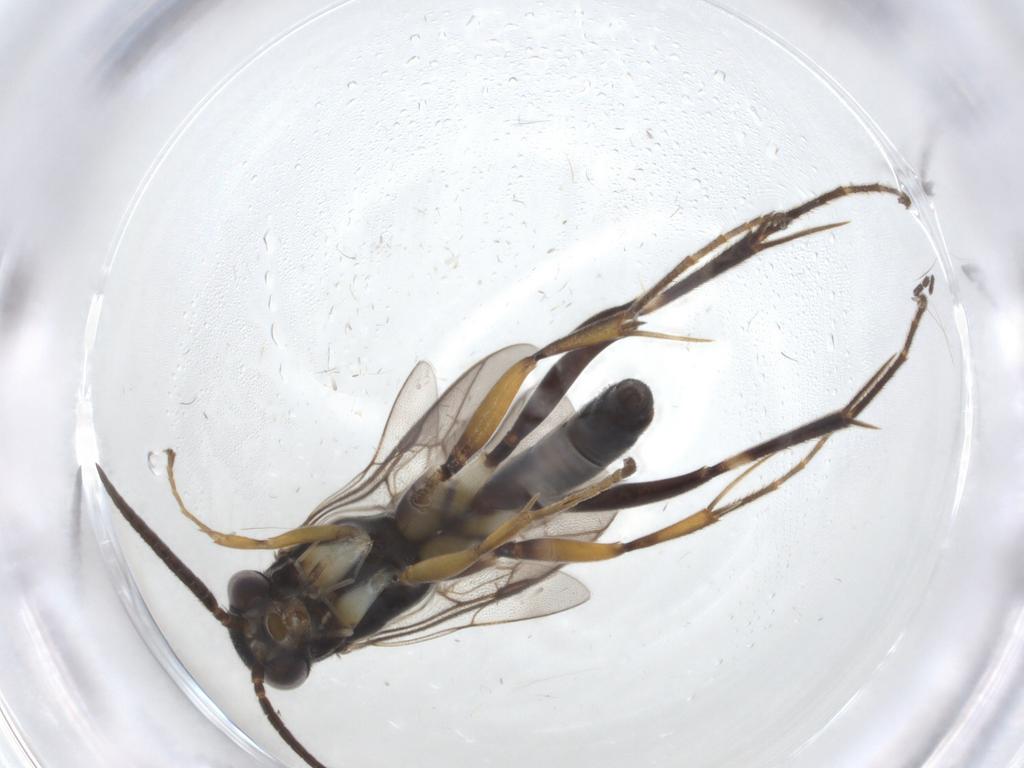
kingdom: Animalia
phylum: Arthropoda
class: Insecta
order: Hymenoptera
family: Pompilidae
